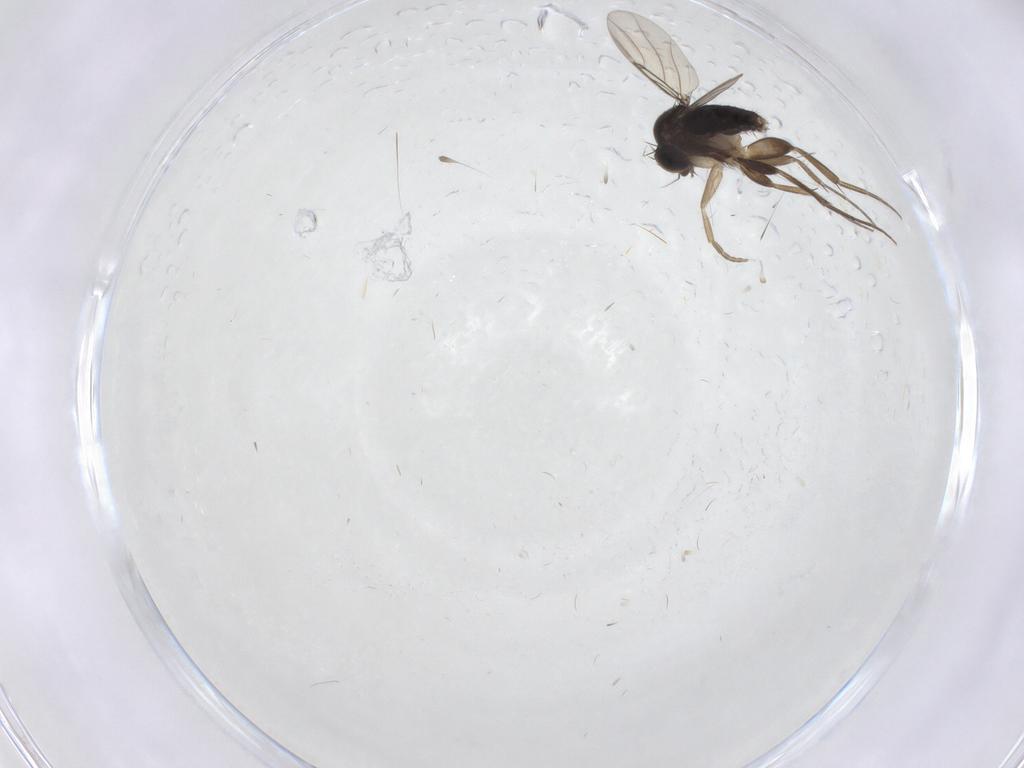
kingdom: Animalia
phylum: Arthropoda
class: Insecta
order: Diptera
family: Phoridae
